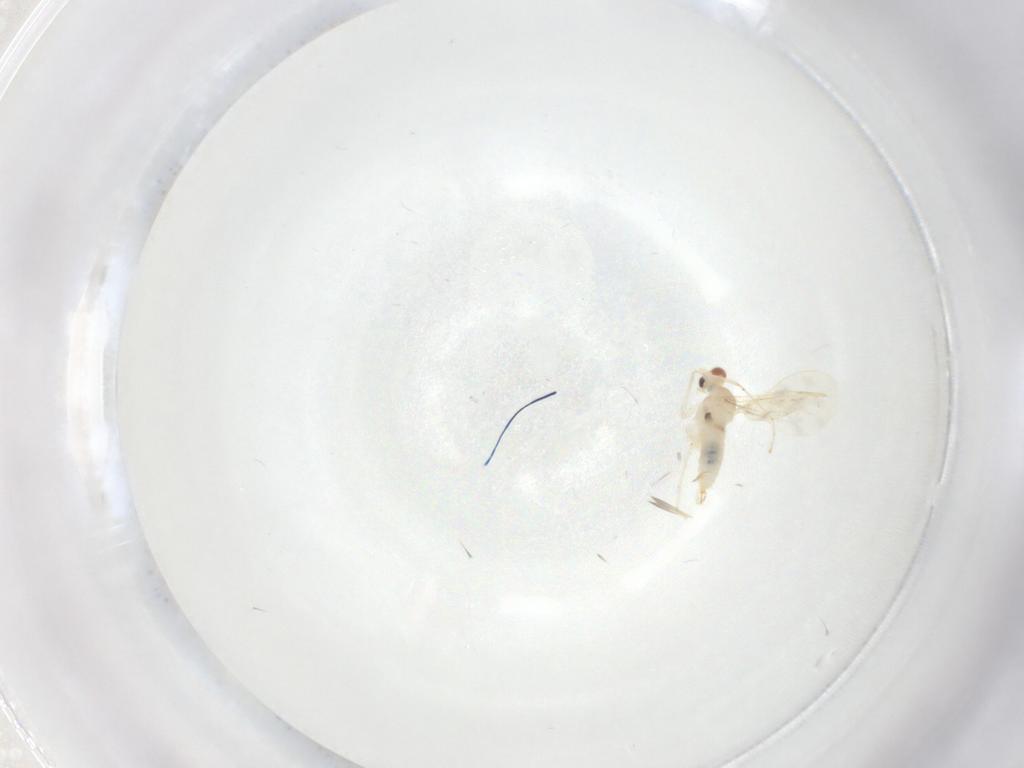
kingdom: Animalia
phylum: Arthropoda
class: Insecta
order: Diptera
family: Cecidomyiidae
